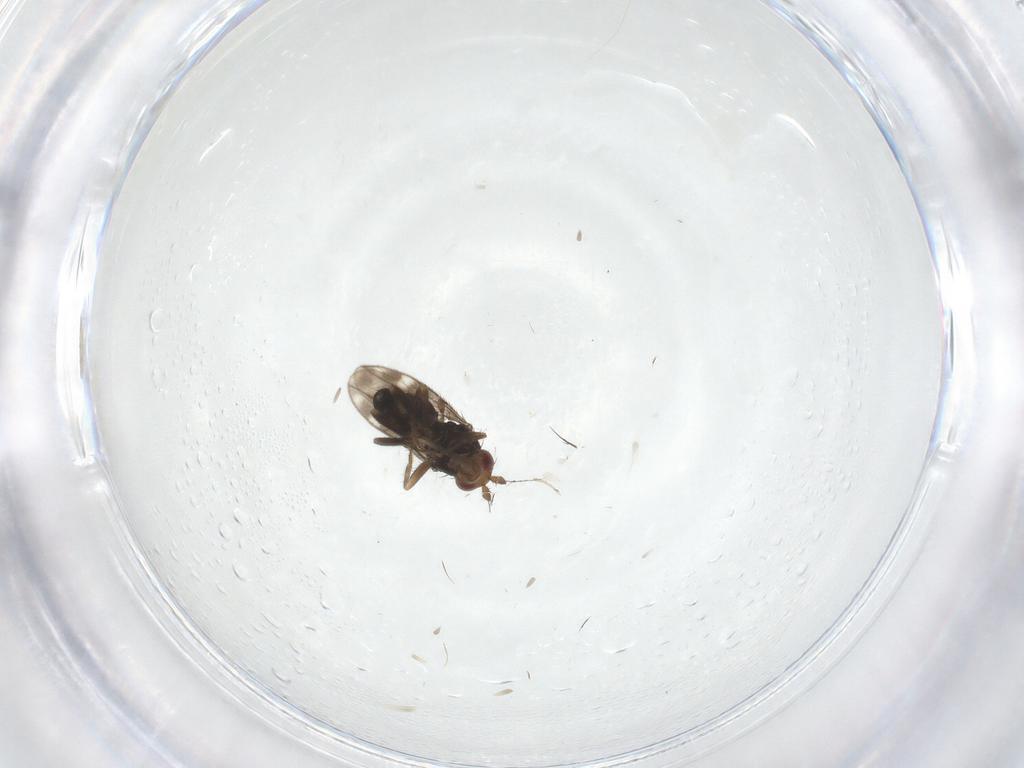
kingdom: Animalia
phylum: Arthropoda
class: Insecta
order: Diptera
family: Sphaeroceridae
